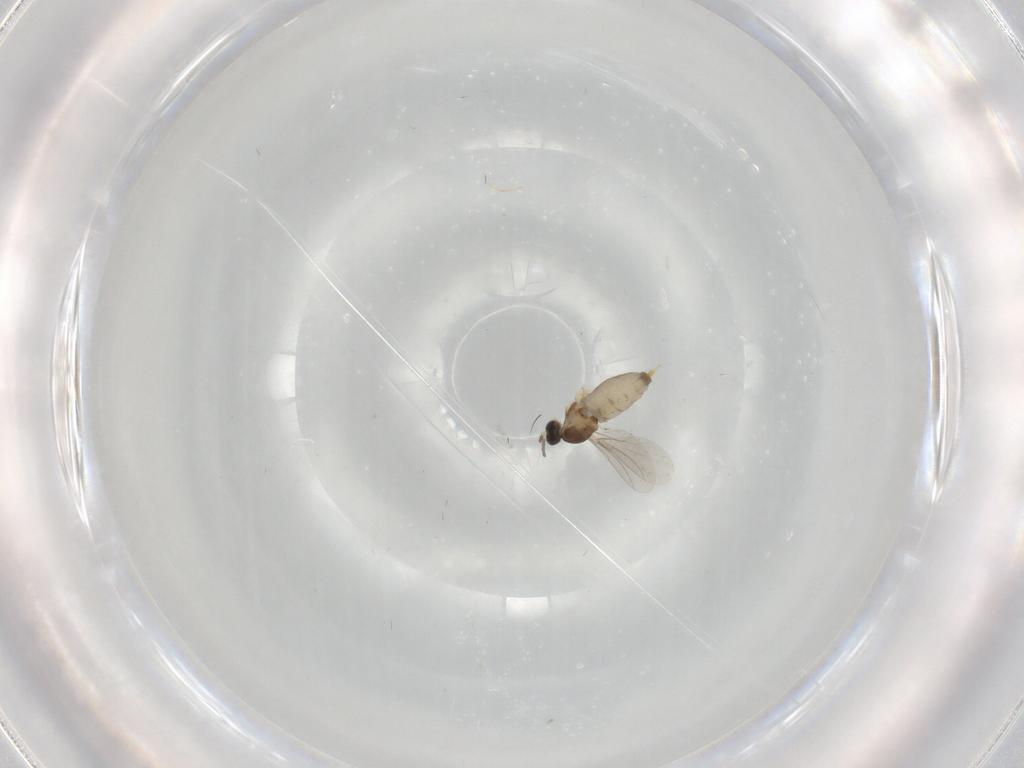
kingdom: Animalia
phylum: Arthropoda
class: Insecta
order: Diptera
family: Cecidomyiidae
